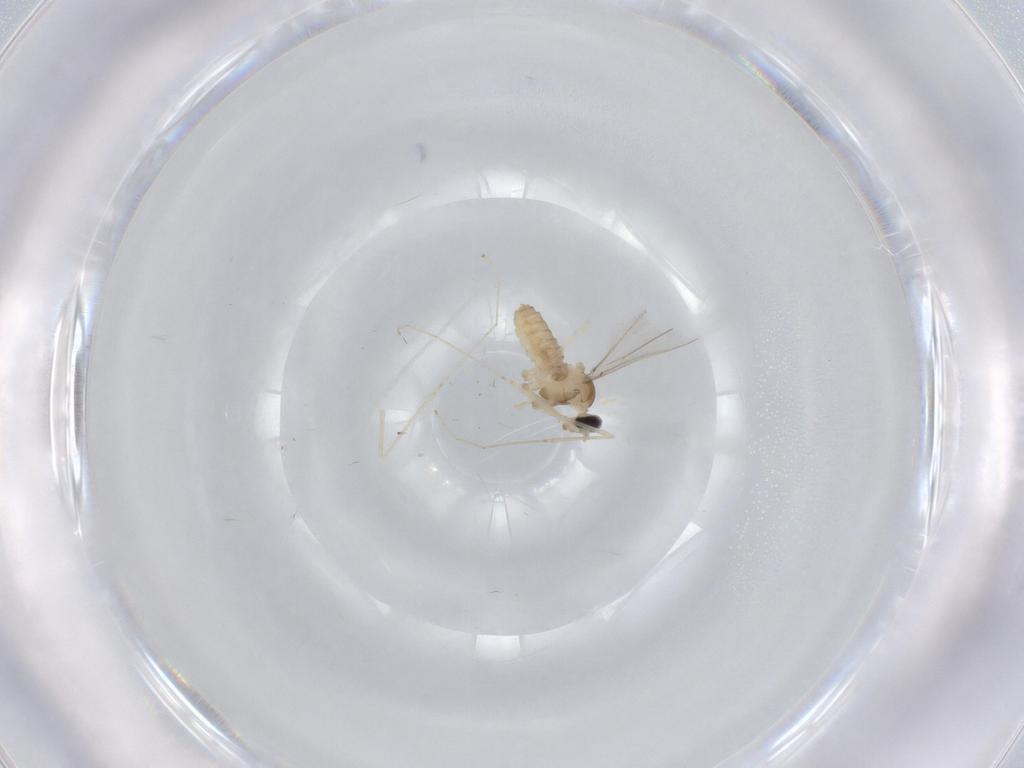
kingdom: Animalia
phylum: Arthropoda
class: Insecta
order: Diptera
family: Cecidomyiidae
